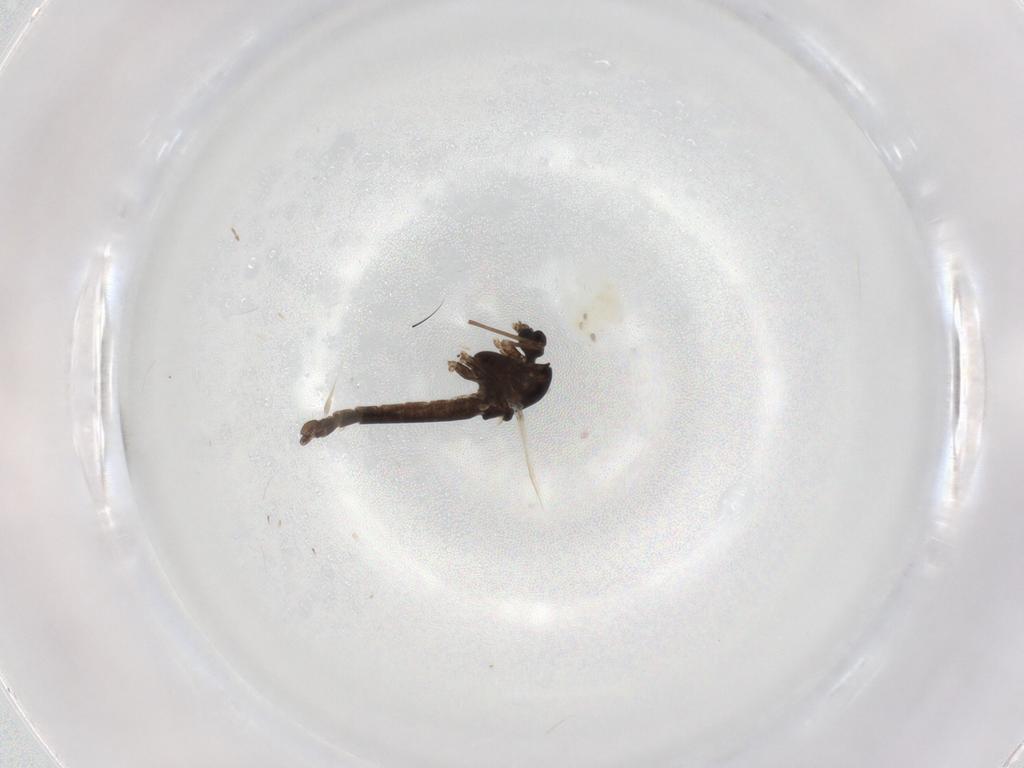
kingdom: Animalia
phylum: Arthropoda
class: Insecta
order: Diptera
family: Chironomidae
